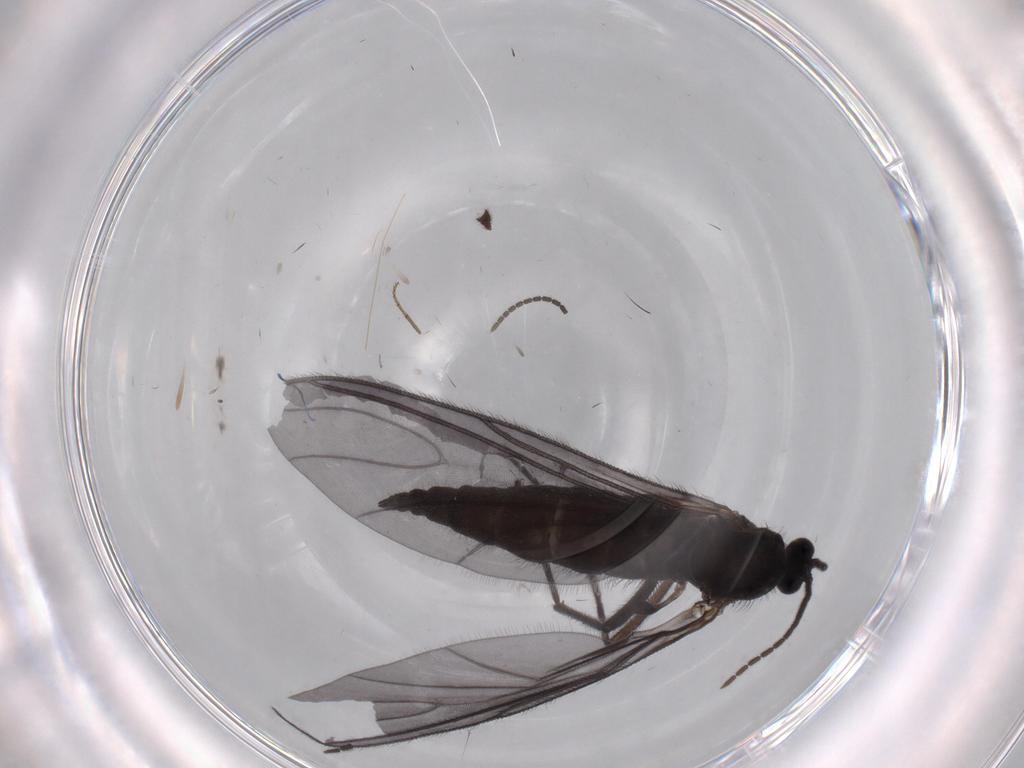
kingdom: Animalia
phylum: Arthropoda
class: Insecta
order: Diptera
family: Sciaridae
